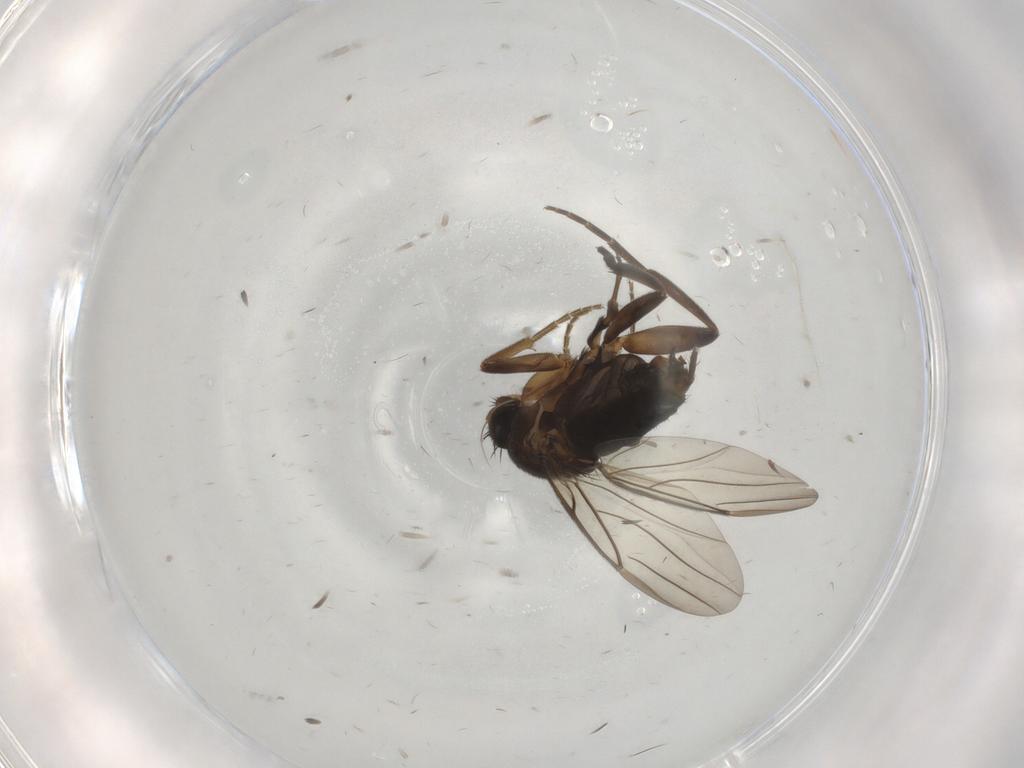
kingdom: Animalia
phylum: Arthropoda
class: Insecta
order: Diptera
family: Bibionidae
